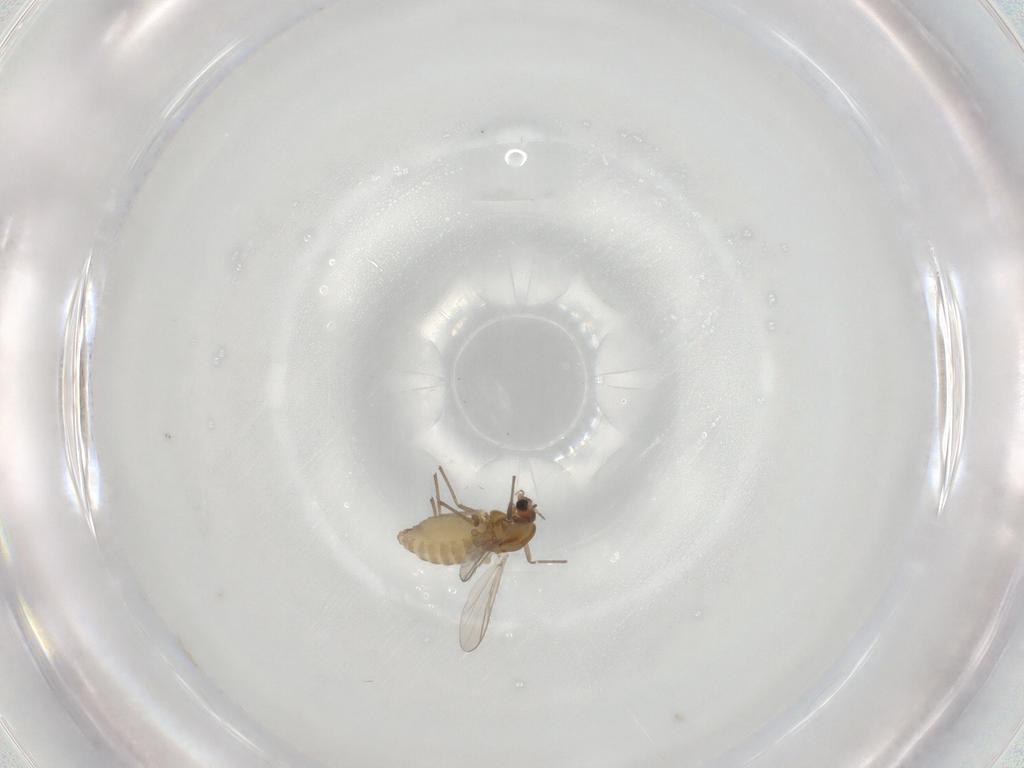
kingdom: Animalia
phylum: Arthropoda
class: Insecta
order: Diptera
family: Chironomidae
